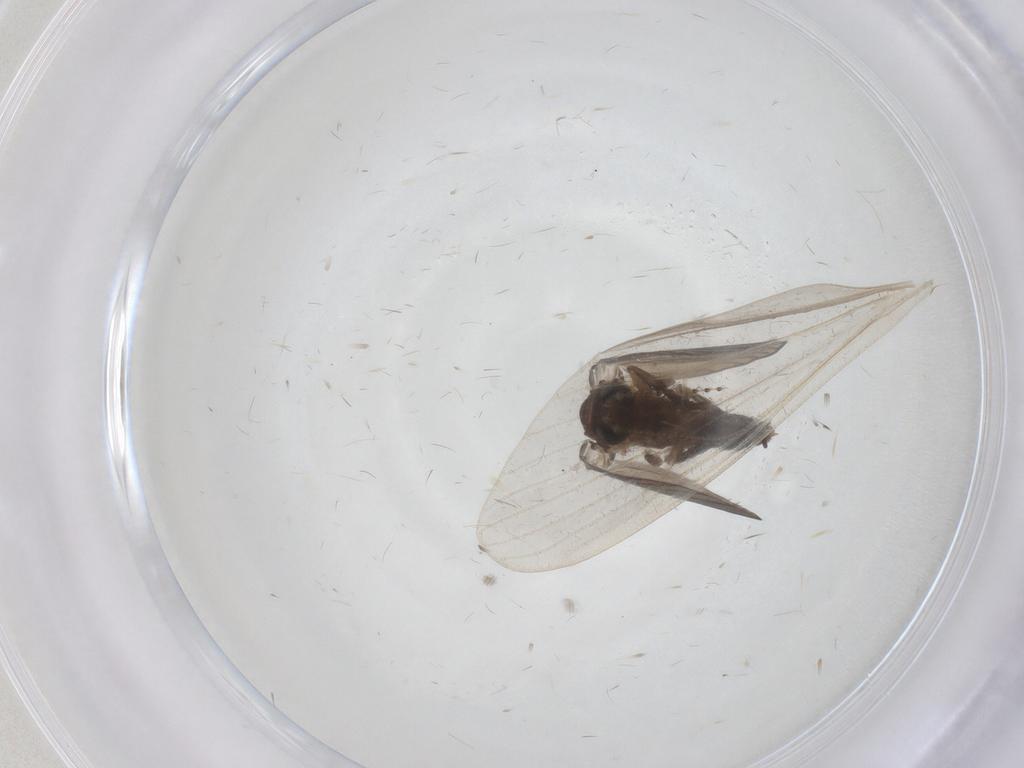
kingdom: Animalia
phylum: Arthropoda
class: Insecta
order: Diptera
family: Psychodidae
